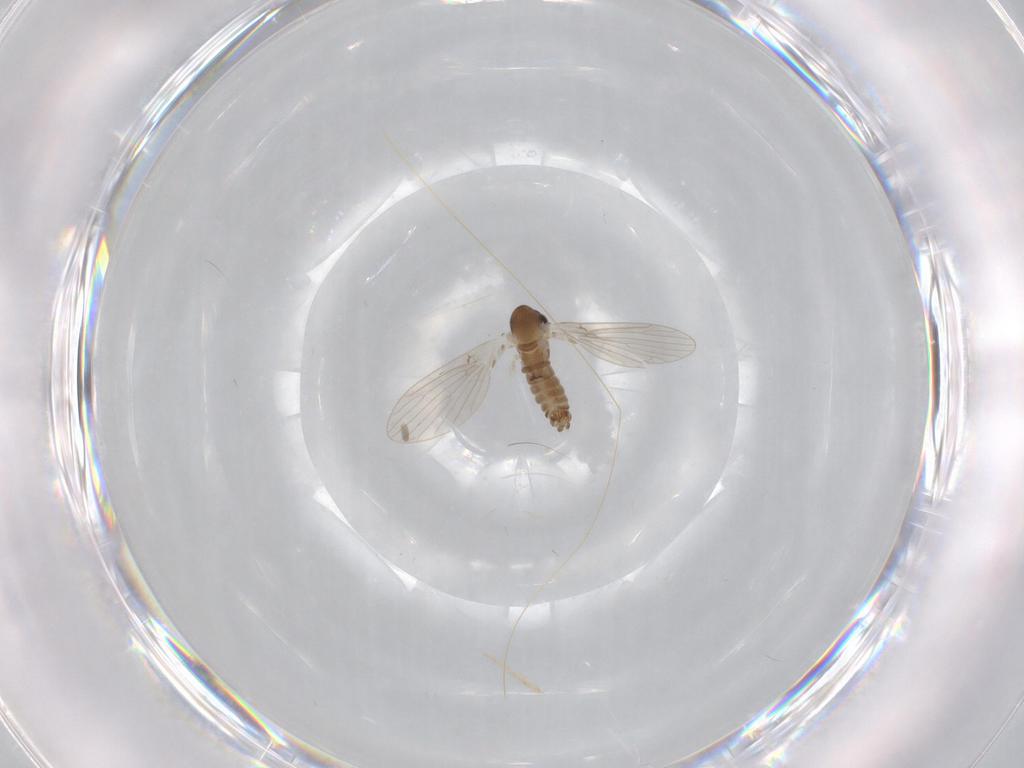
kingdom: Animalia
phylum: Arthropoda
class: Insecta
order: Diptera
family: Psychodidae
